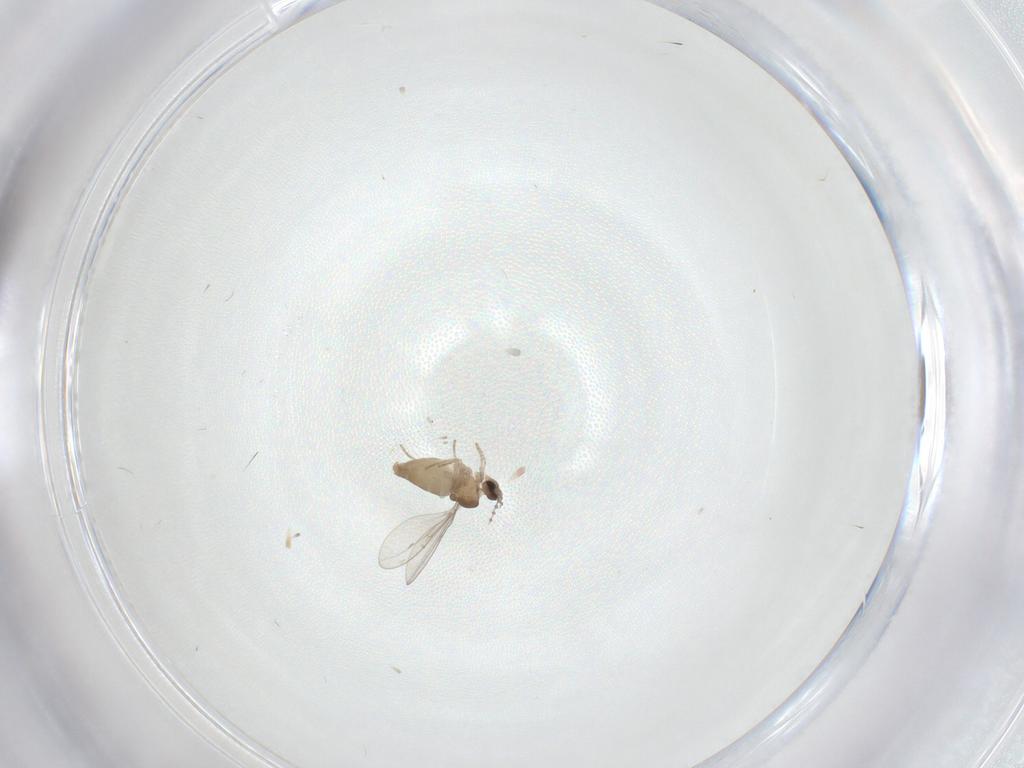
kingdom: Animalia
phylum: Arthropoda
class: Insecta
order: Diptera
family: Cecidomyiidae
